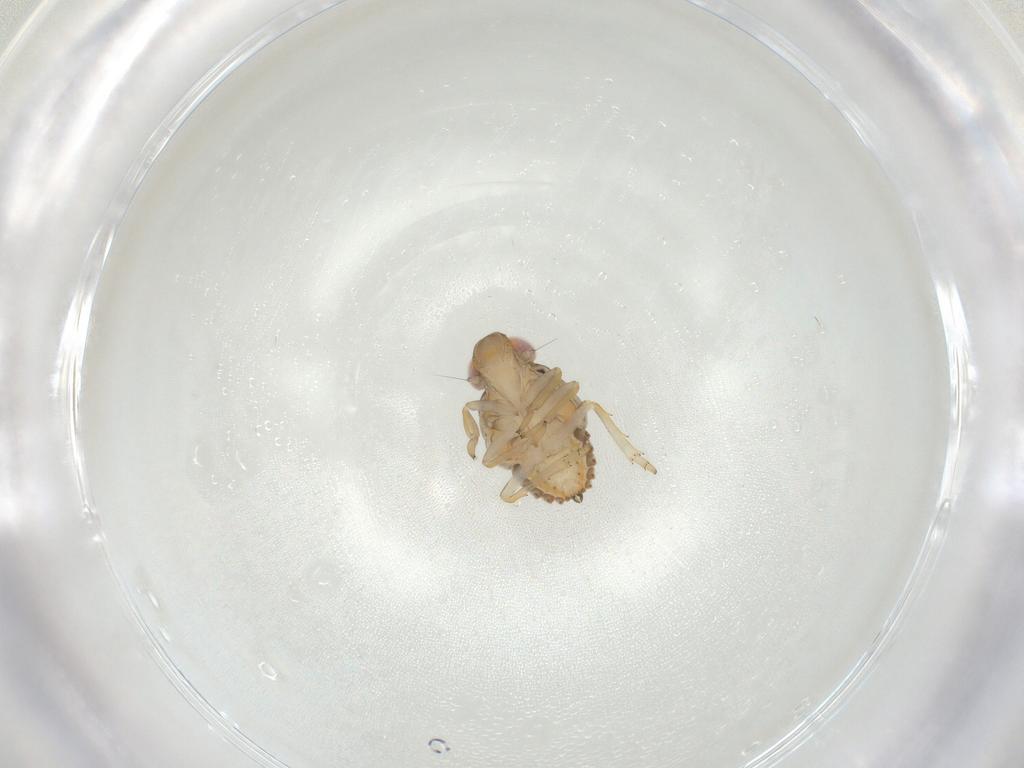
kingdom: Animalia
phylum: Arthropoda
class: Insecta
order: Hemiptera
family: Issidae
